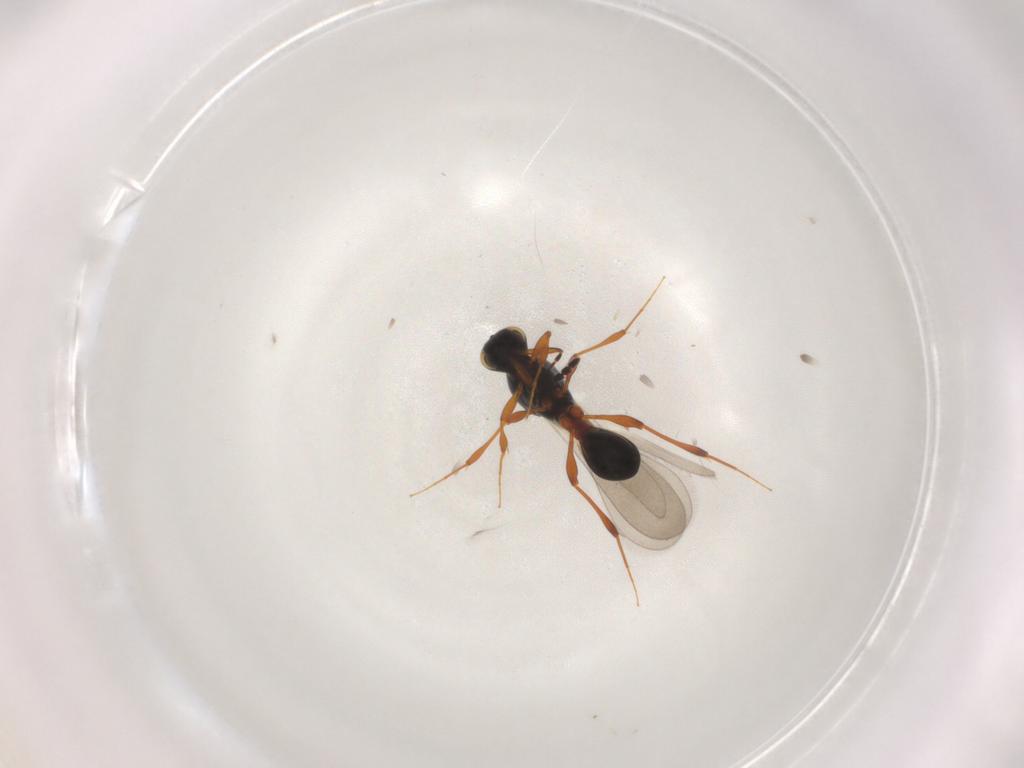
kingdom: Animalia
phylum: Arthropoda
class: Insecta
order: Hymenoptera
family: Platygastridae
